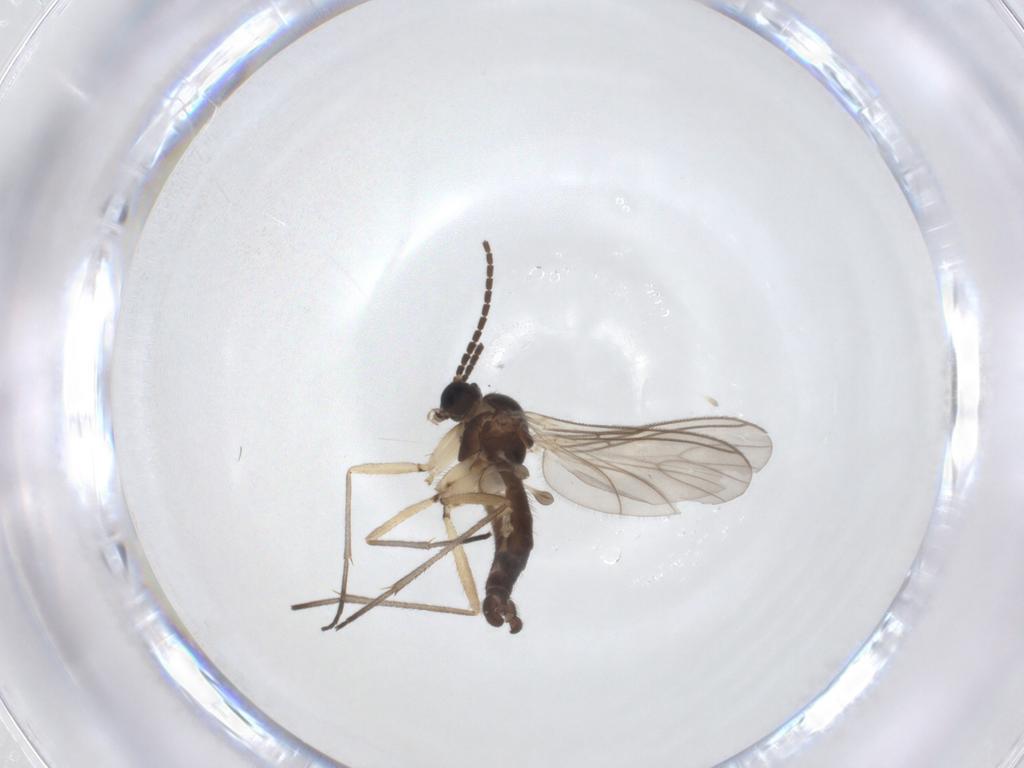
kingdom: Animalia
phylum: Arthropoda
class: Insecta
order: Diptera
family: Sciaridae
